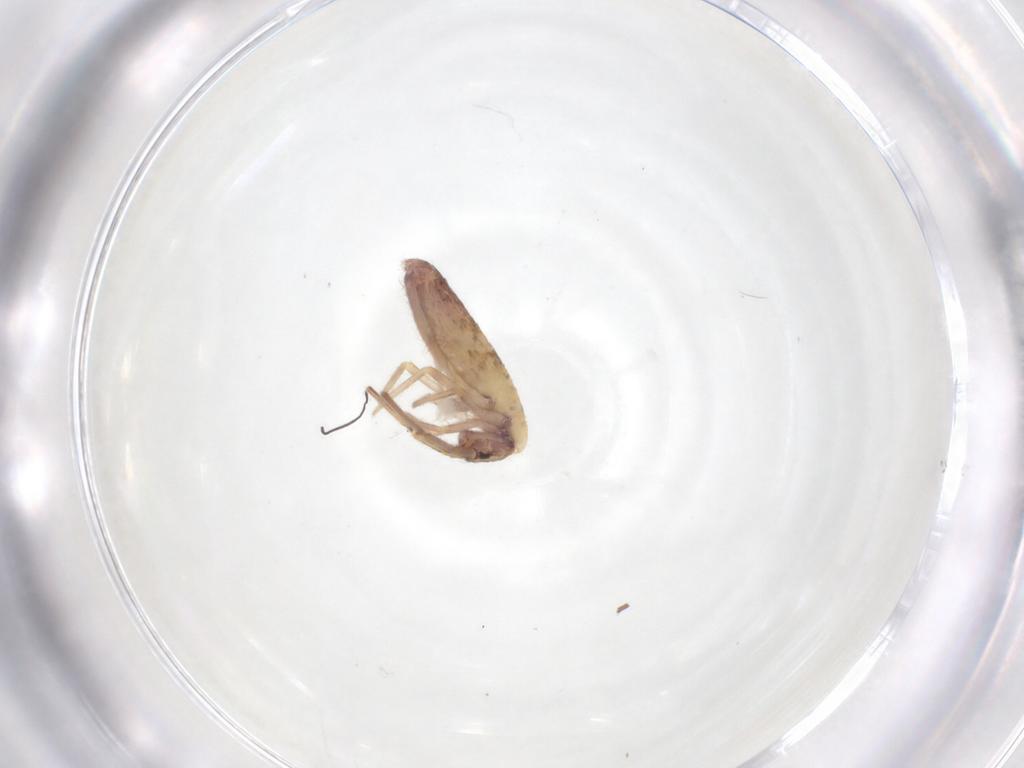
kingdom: Animalia
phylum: Arthropoda
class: Collembola
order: Entomobryomorpha
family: Entomobryidae
